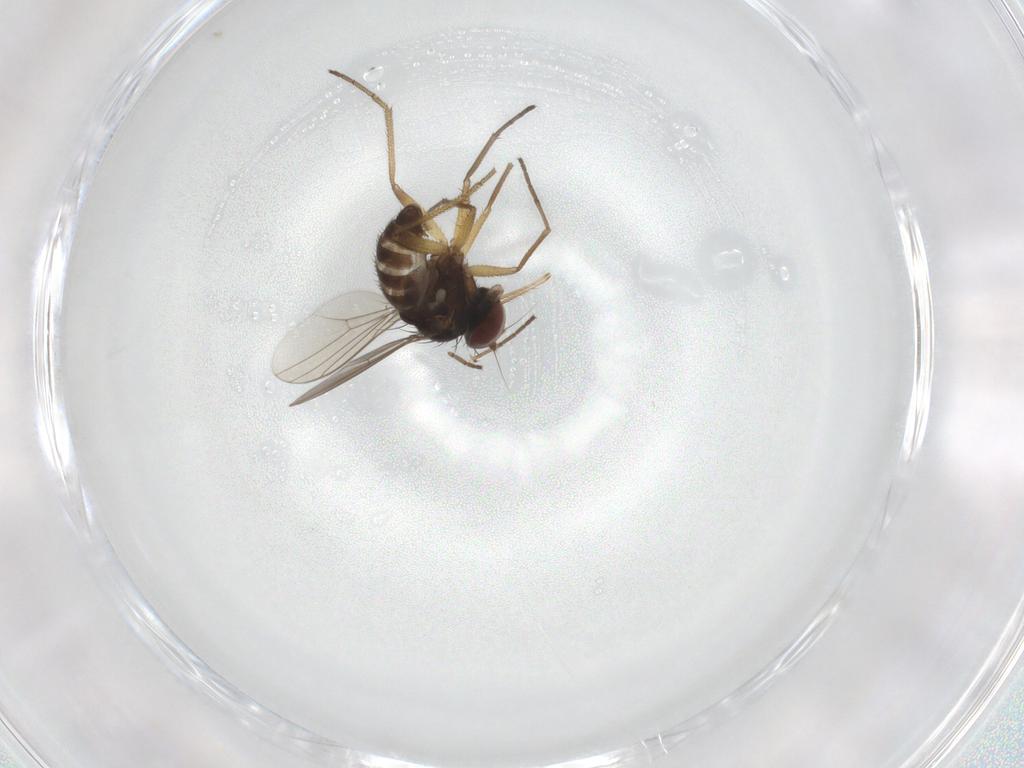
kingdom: Animalia
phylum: Arthropoda
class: Insecta
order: Diptera
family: Dolichopodidae
